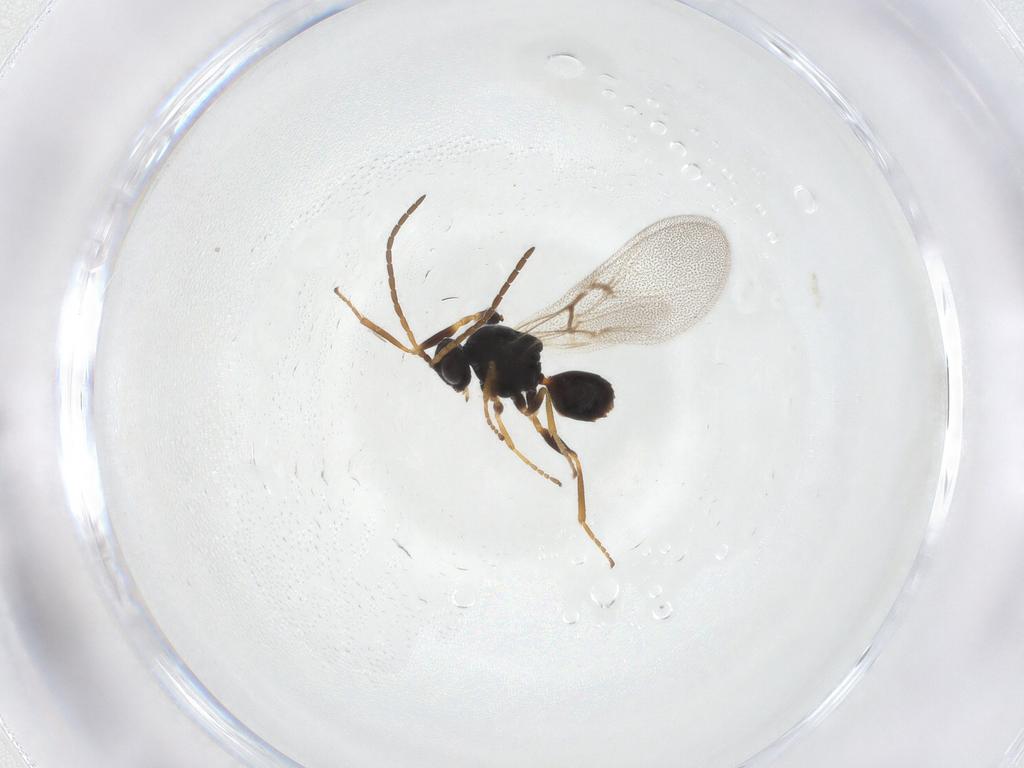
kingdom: Animalia
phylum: Arthropoda
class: Insecta
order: Hymenoptera
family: Cynipidae
